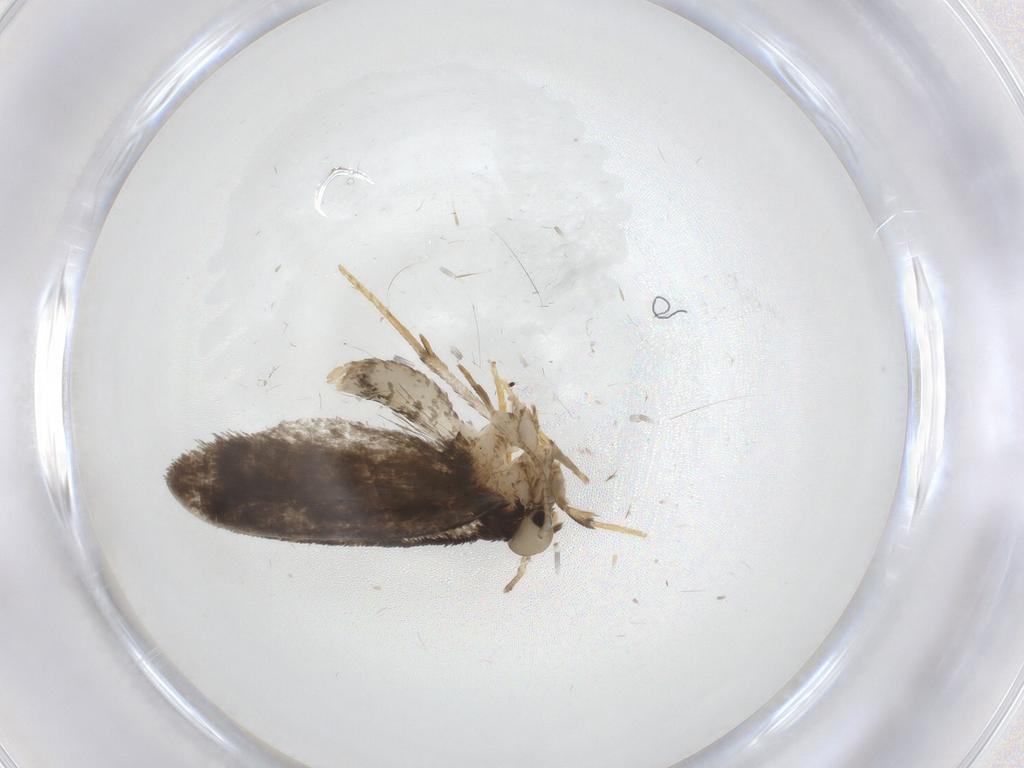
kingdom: Animalia
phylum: Arthropoda
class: Insecta
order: Lepidoptera
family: Psychidae
